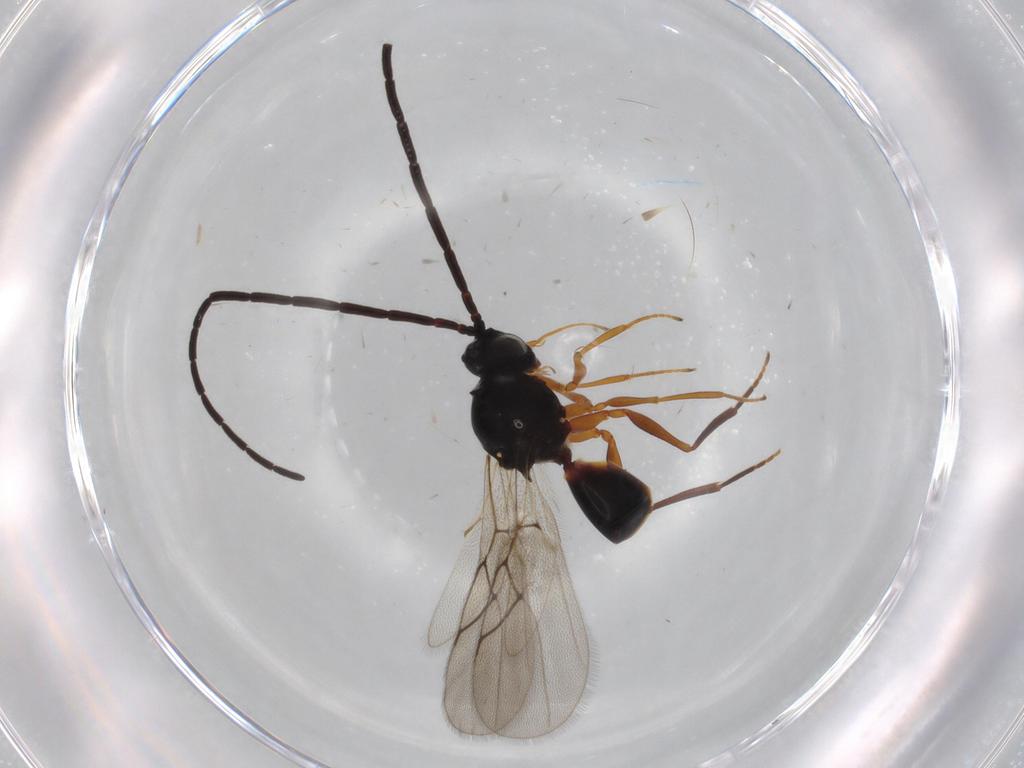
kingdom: Animalia
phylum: Arthropoda
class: Insecta
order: Hymenoptera
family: Figitidae
